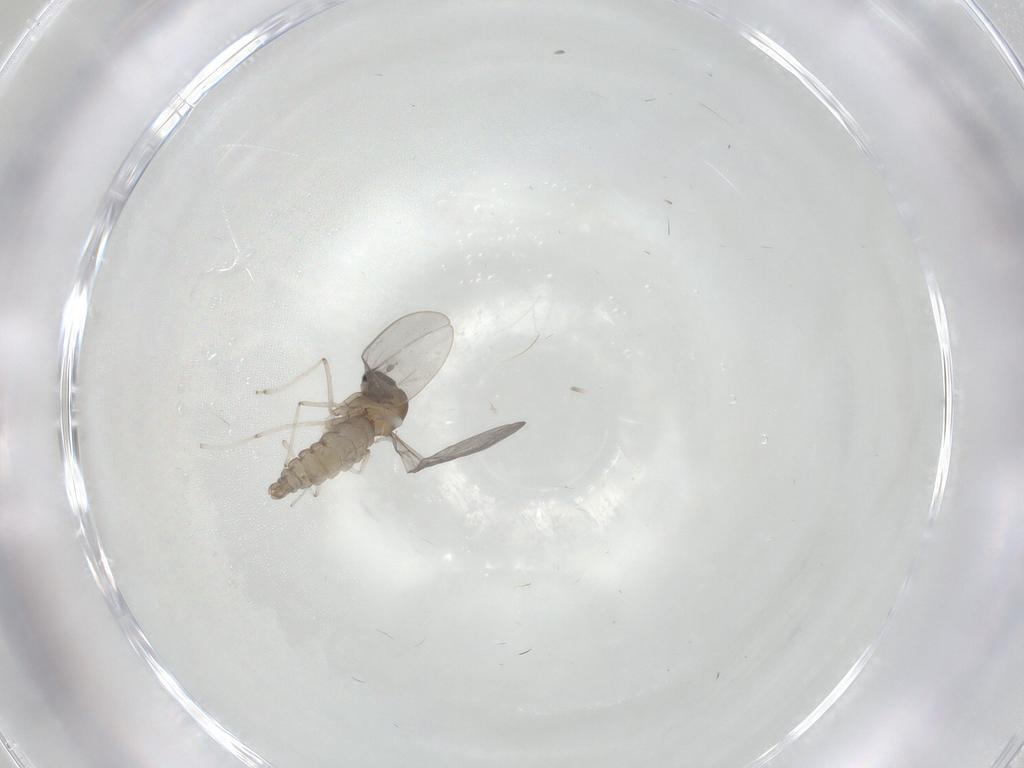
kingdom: Animalia
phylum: Arthropoda
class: Insecta
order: Diptera
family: Cecidomyiidae
